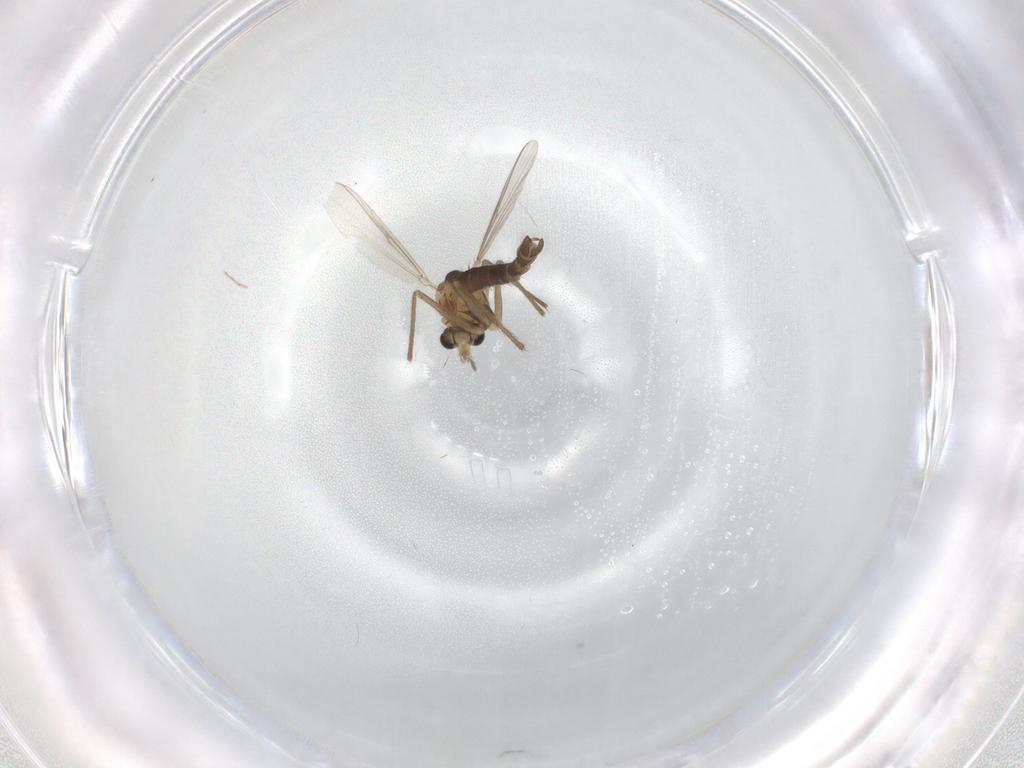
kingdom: Animalia
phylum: Arthropoda
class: Insecta
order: Diptera
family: Chironomidae
